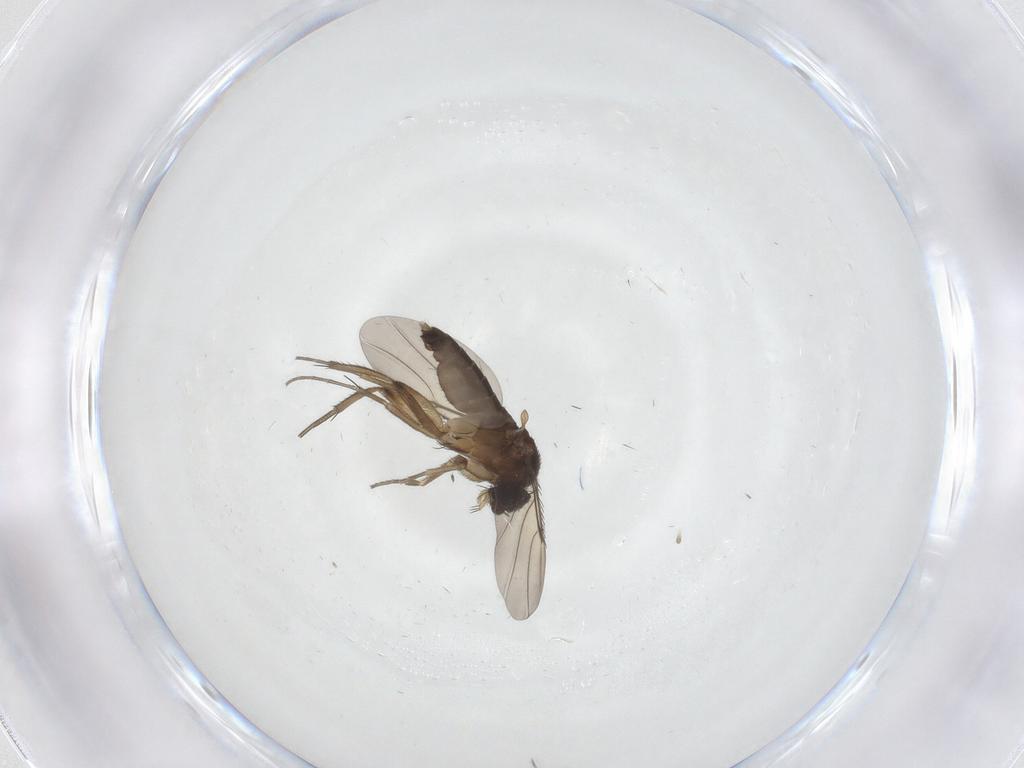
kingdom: Animalia
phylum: Arthropoda
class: Insecta
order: Diptera
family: Phoridae
